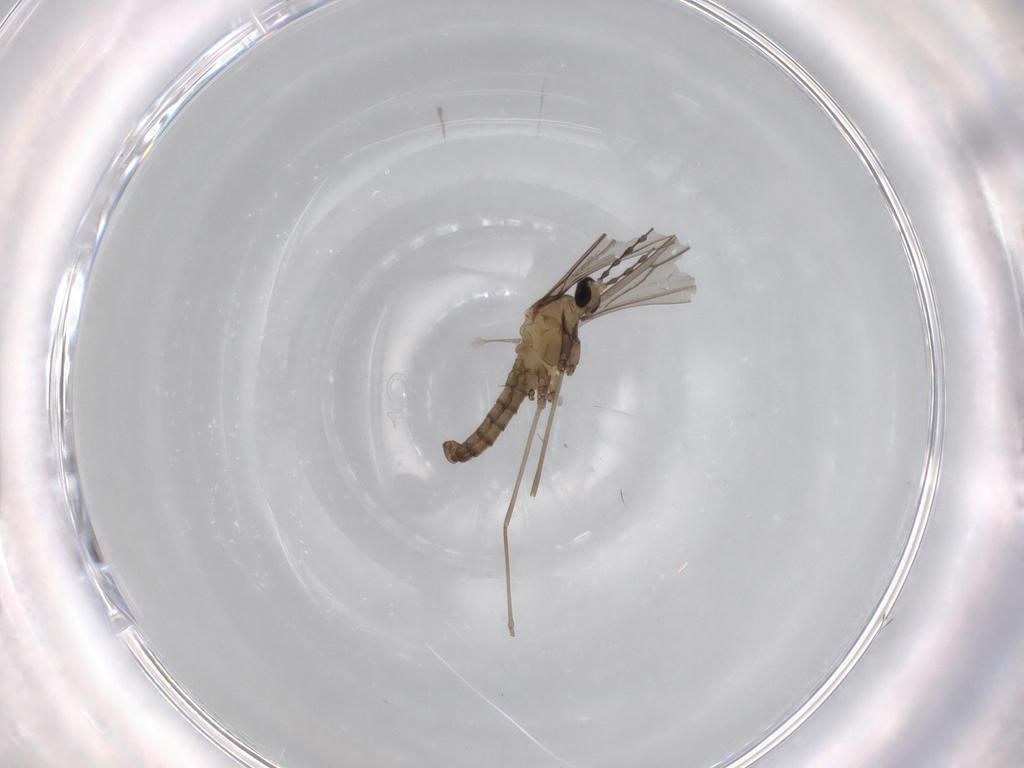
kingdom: Animalia
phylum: Arthropoda
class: Insecta
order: Diptera
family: Cecidomyiidae
